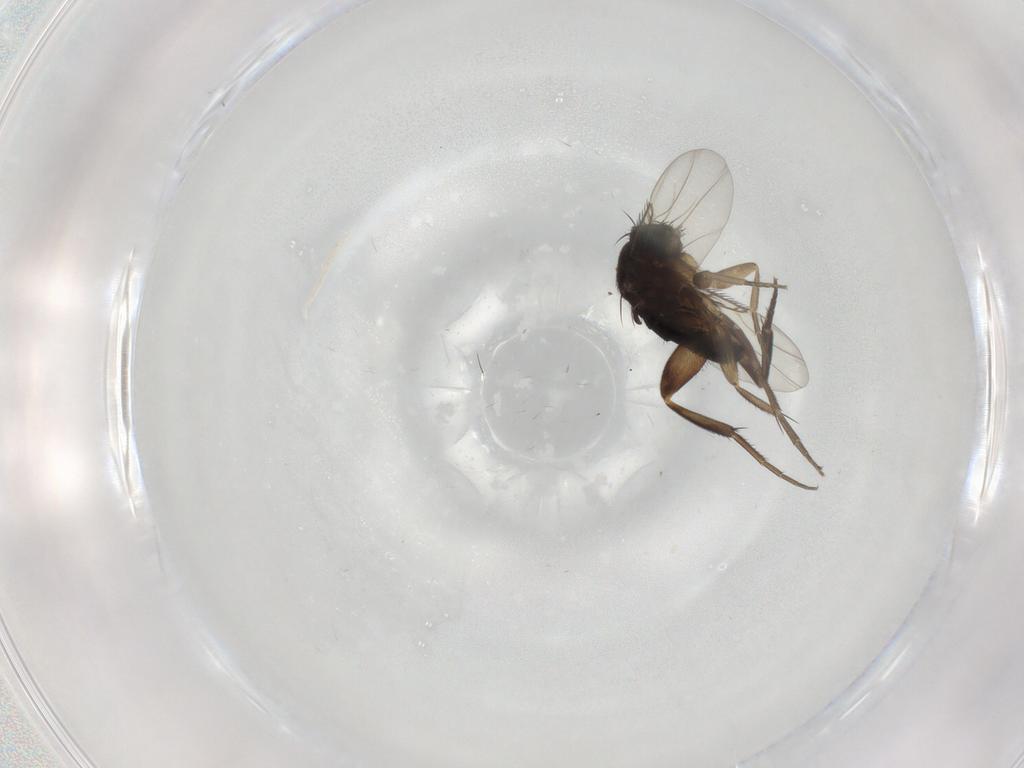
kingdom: Animalia
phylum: Arthropoda
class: Insecta
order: Diptera
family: Phoridae
